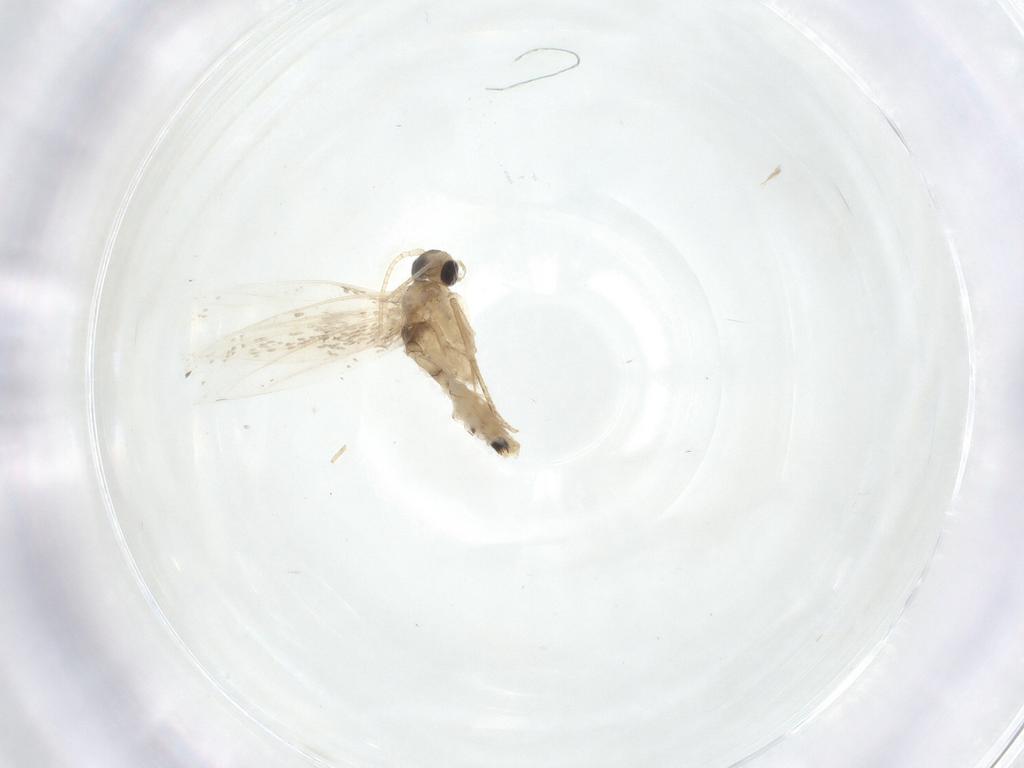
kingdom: Animalia
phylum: Arthropoda
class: Insecta
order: Lepidoptera
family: Dryadaulidae
